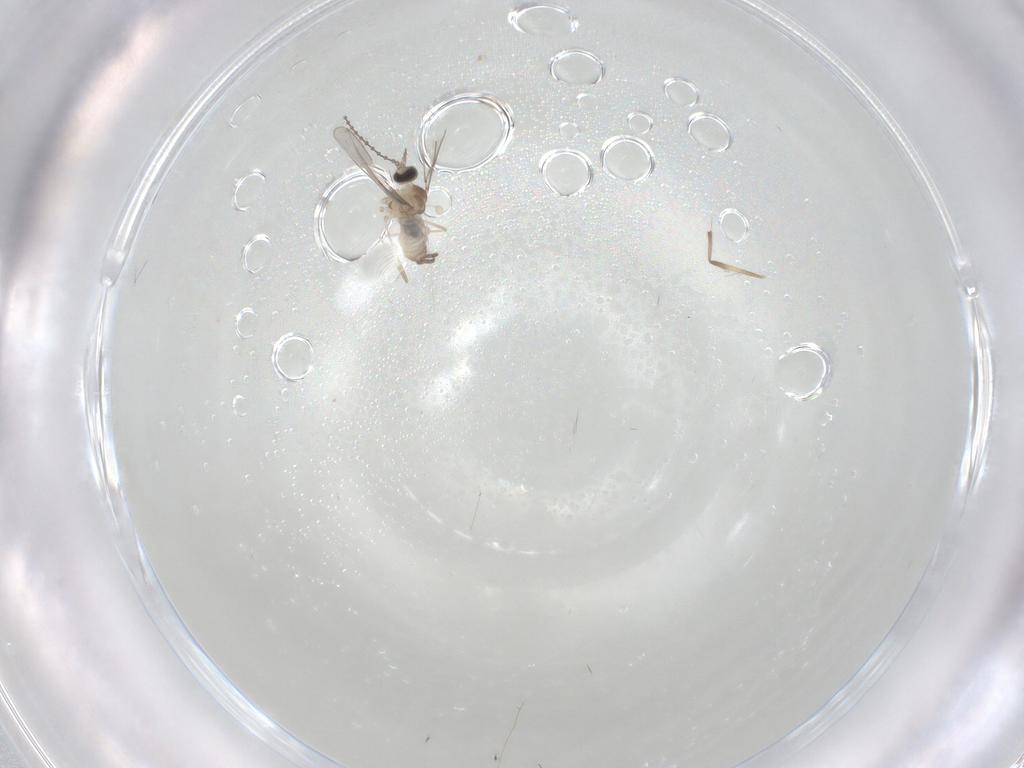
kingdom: Animalia
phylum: Arthropoda
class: Insecta
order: Diptera
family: Cecidomyiidae
